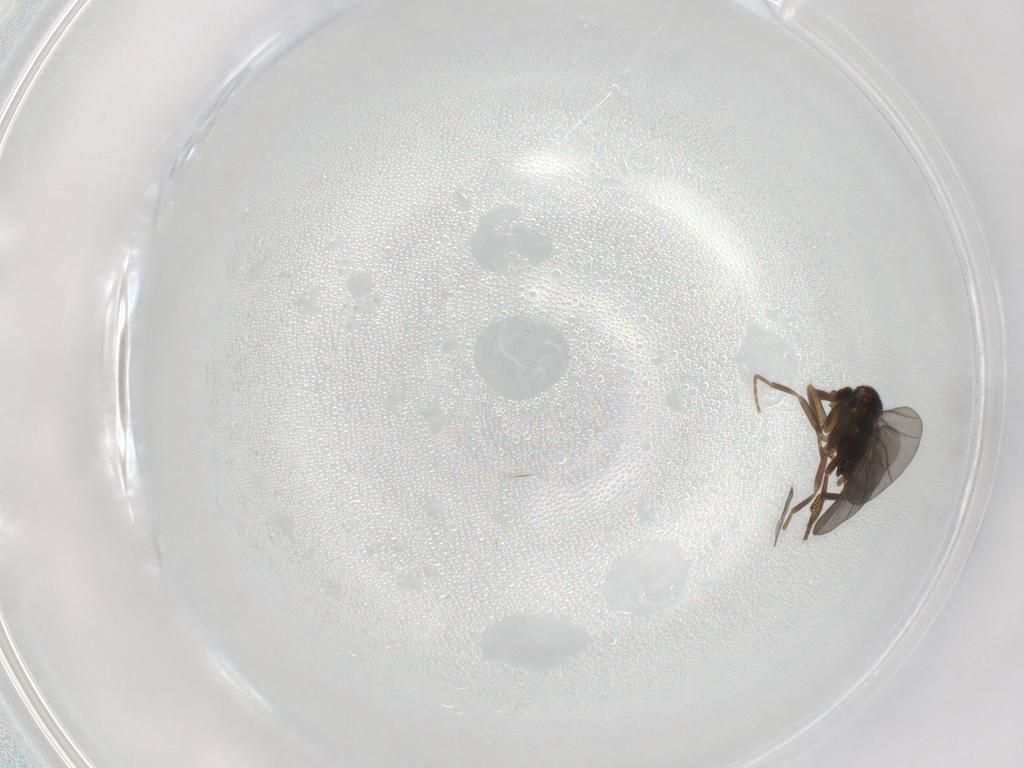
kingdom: Animalia
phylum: Arthropoda
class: Insecta
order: Diptera
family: Chironomidae
